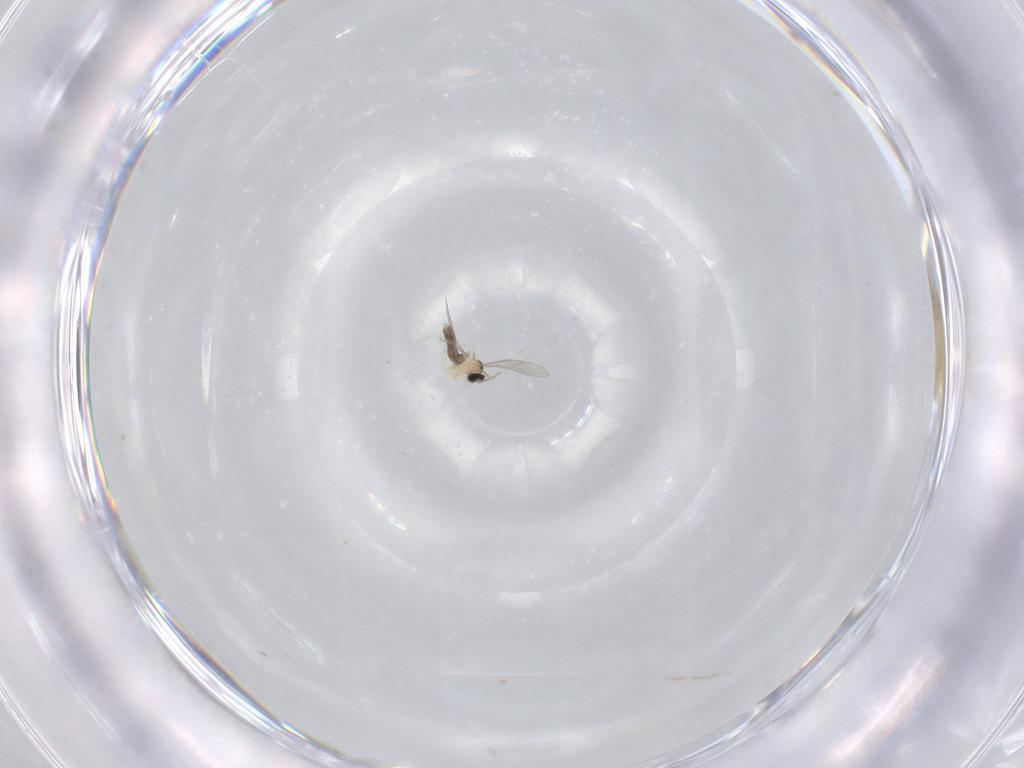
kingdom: Animalia
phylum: Arthropoda
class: Insecta
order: Diptera
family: Cecidomyiidae
